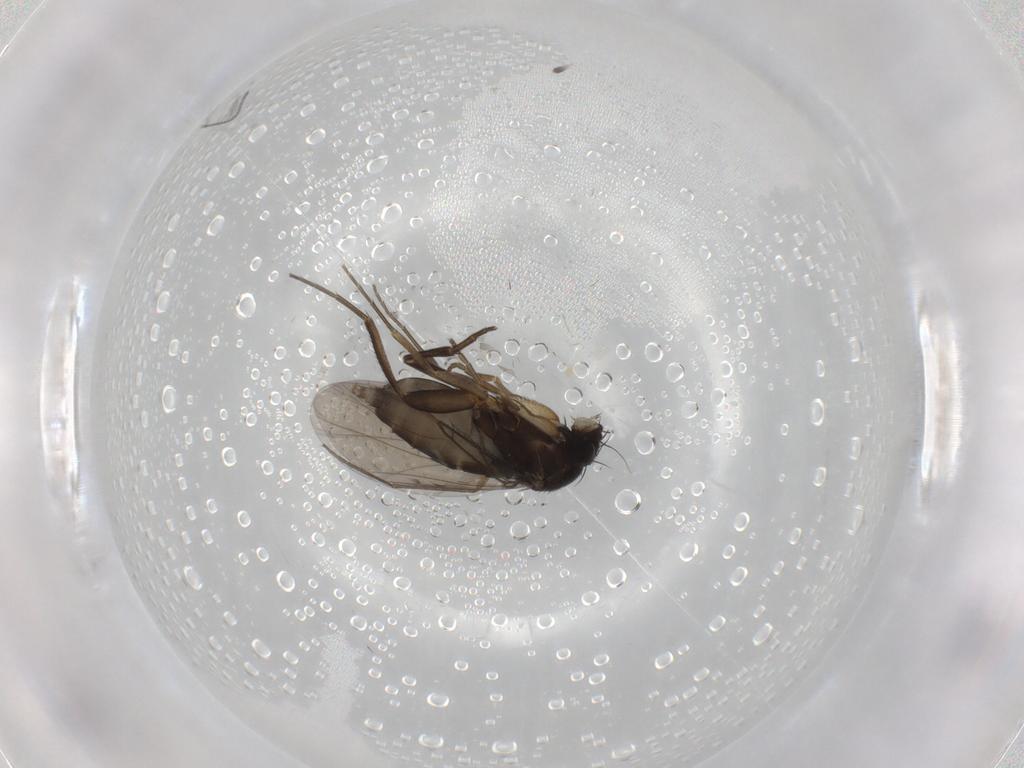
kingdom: Animalia
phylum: Arthropoda
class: Insecta
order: Diptera
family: Phoridae
